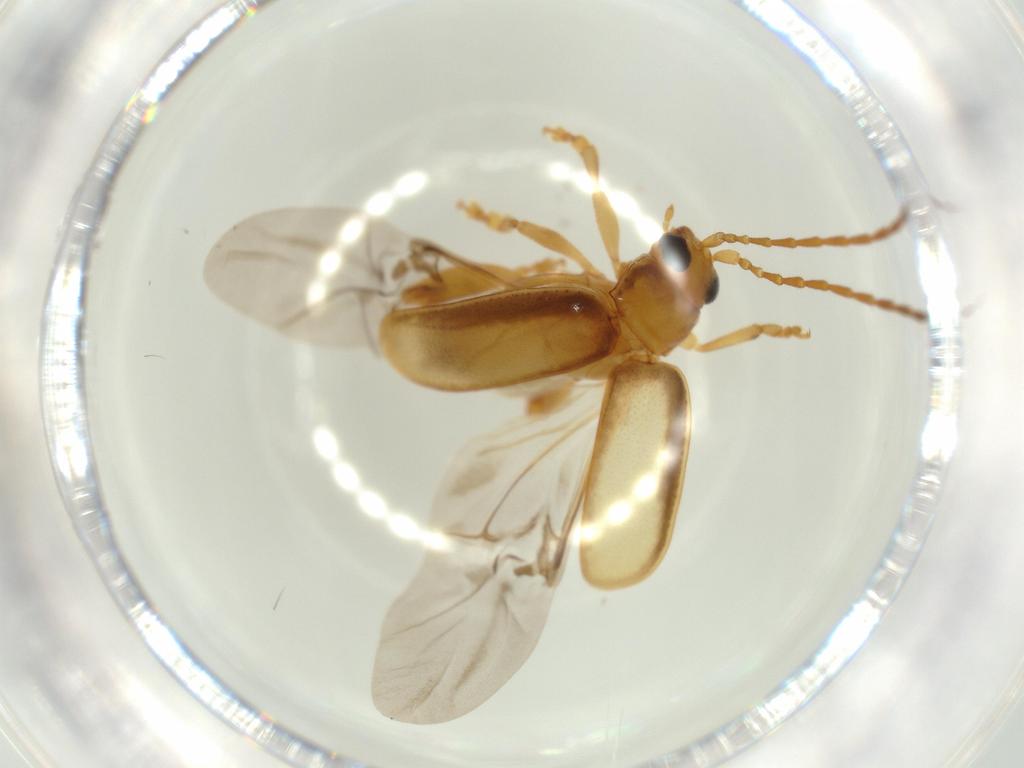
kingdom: Animalia
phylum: Arthropoda
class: Insecta
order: Coleoptera
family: Chrysomelidae
